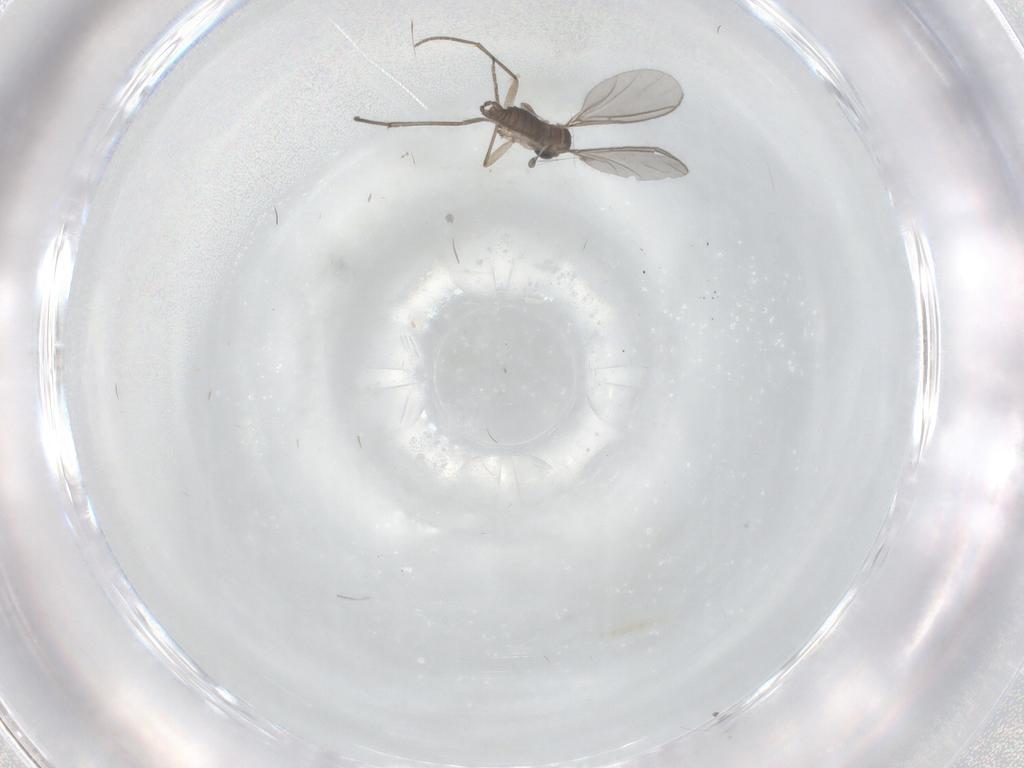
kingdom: Animalia
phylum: Arthropoda
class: Insecta
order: Diptera
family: Sciaridae
